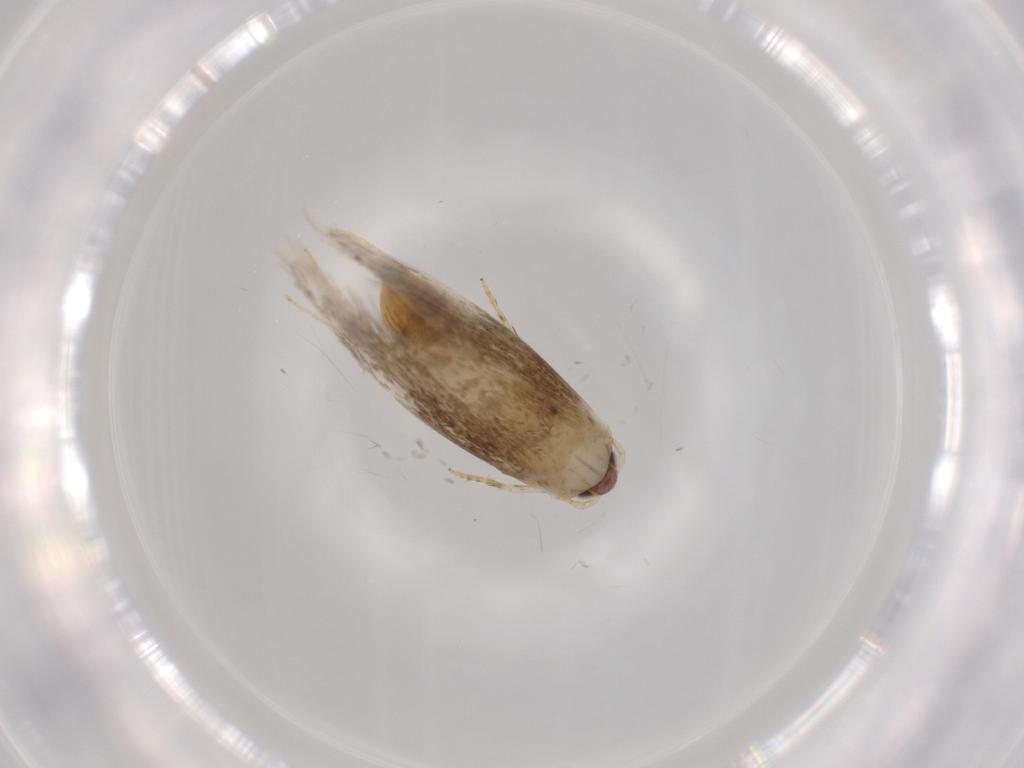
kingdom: Animalia
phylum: Arthropoda
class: Insecta
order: Lepidoptera
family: Tineidae
